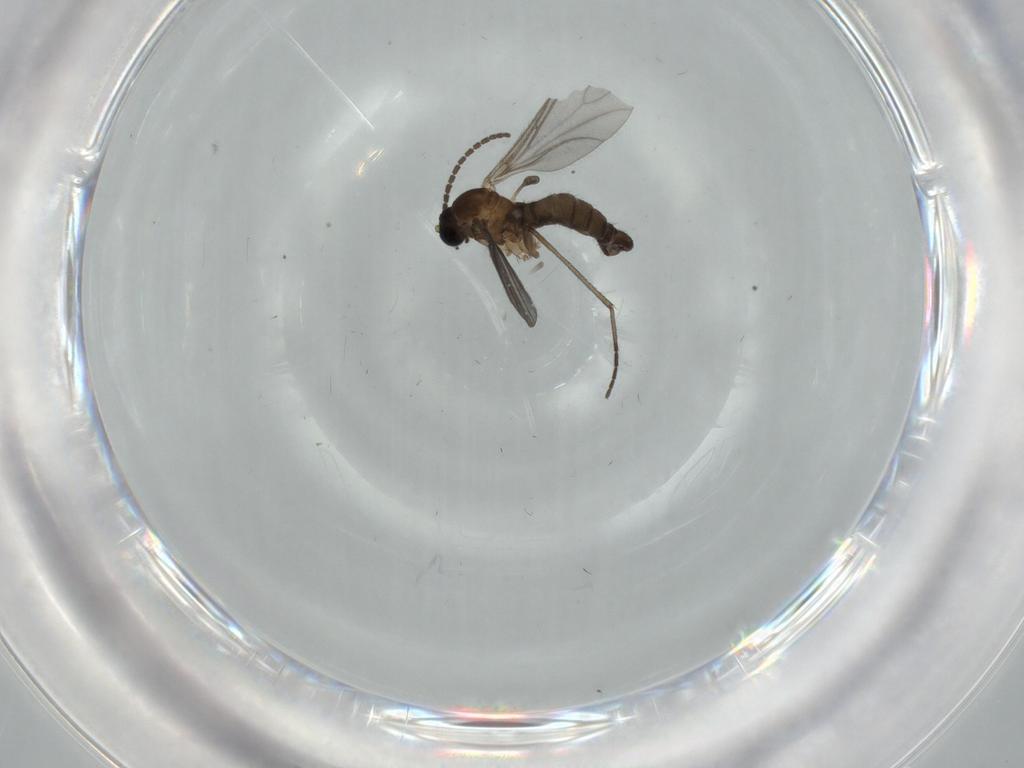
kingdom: Animalia
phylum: Arthropoda
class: Insecta
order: Diptera
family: Sciaridae
